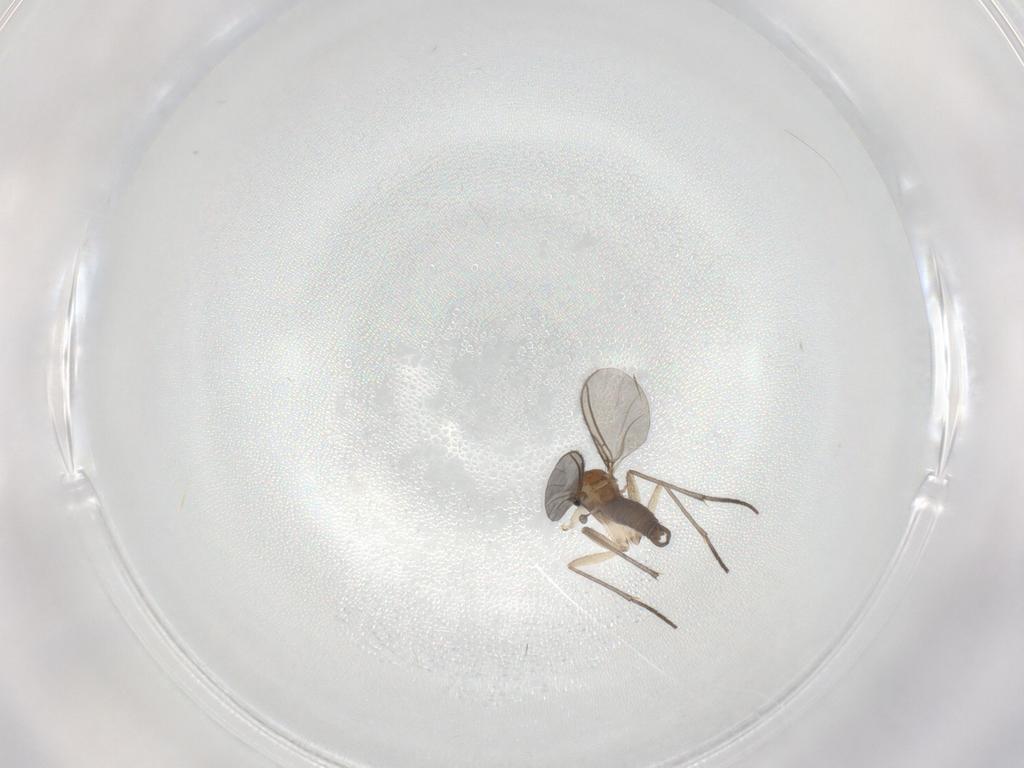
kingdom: Animalia
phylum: Arthropoda
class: Insecta
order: Diptera
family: Sciaridae
